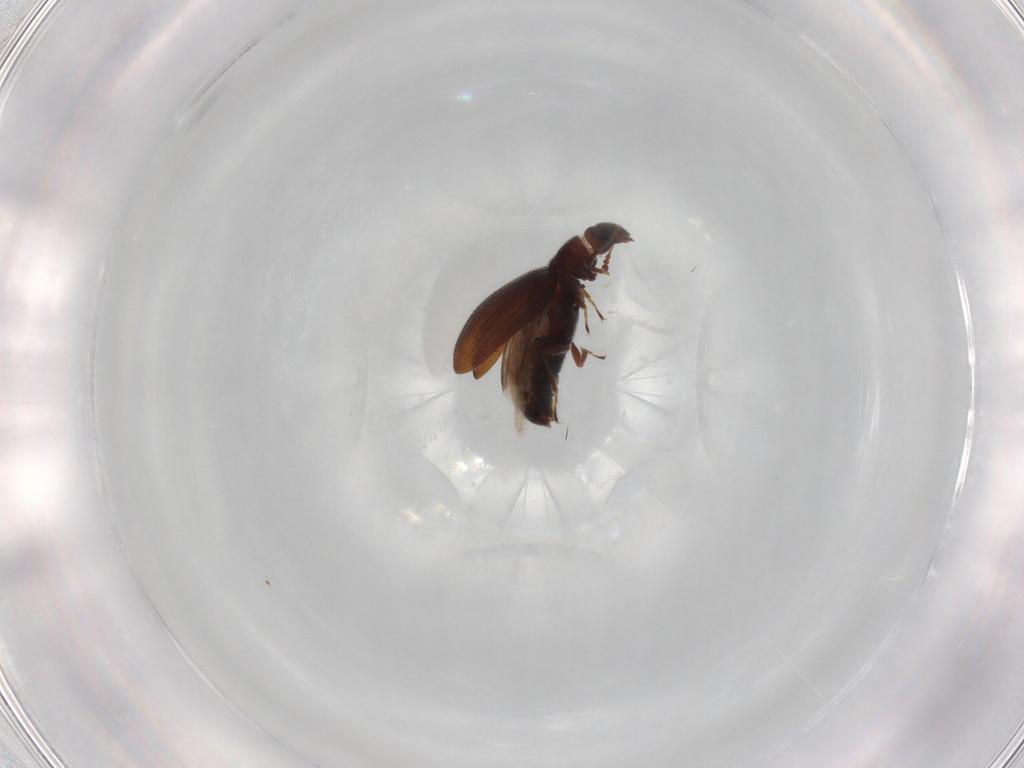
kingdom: Animalia
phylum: Arthropoda
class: Insecta
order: Coleoptera
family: Latridiidae
